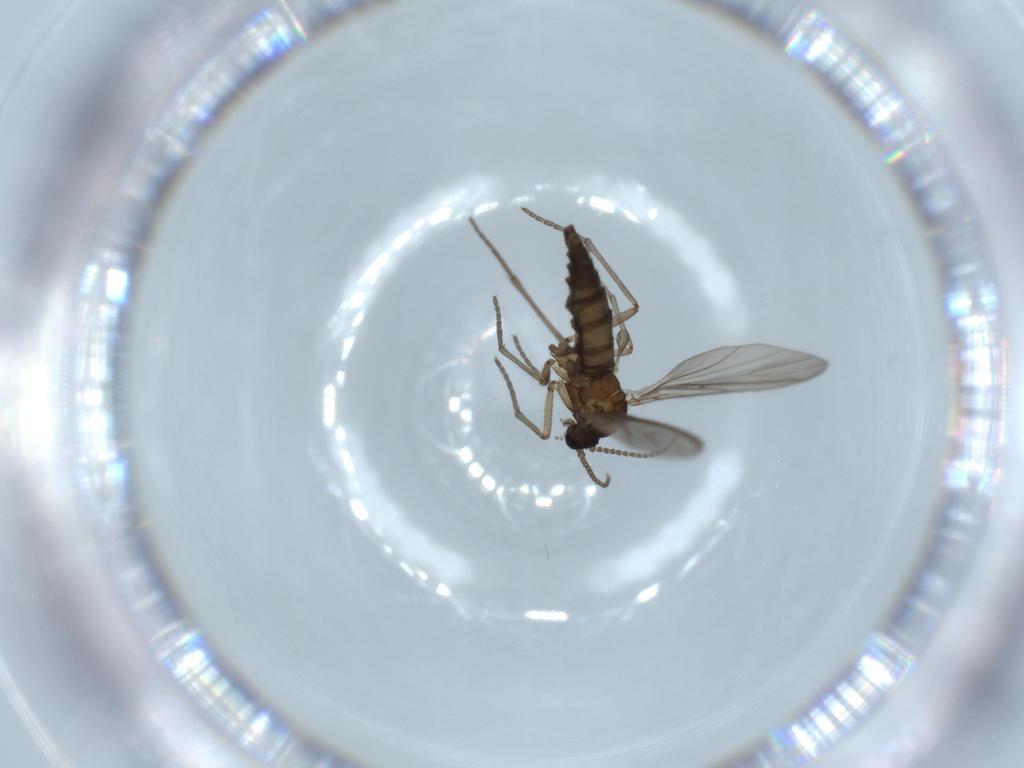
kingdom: Animalia
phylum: Arthropoda
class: Insecta
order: Diptera
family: Sciaridae
